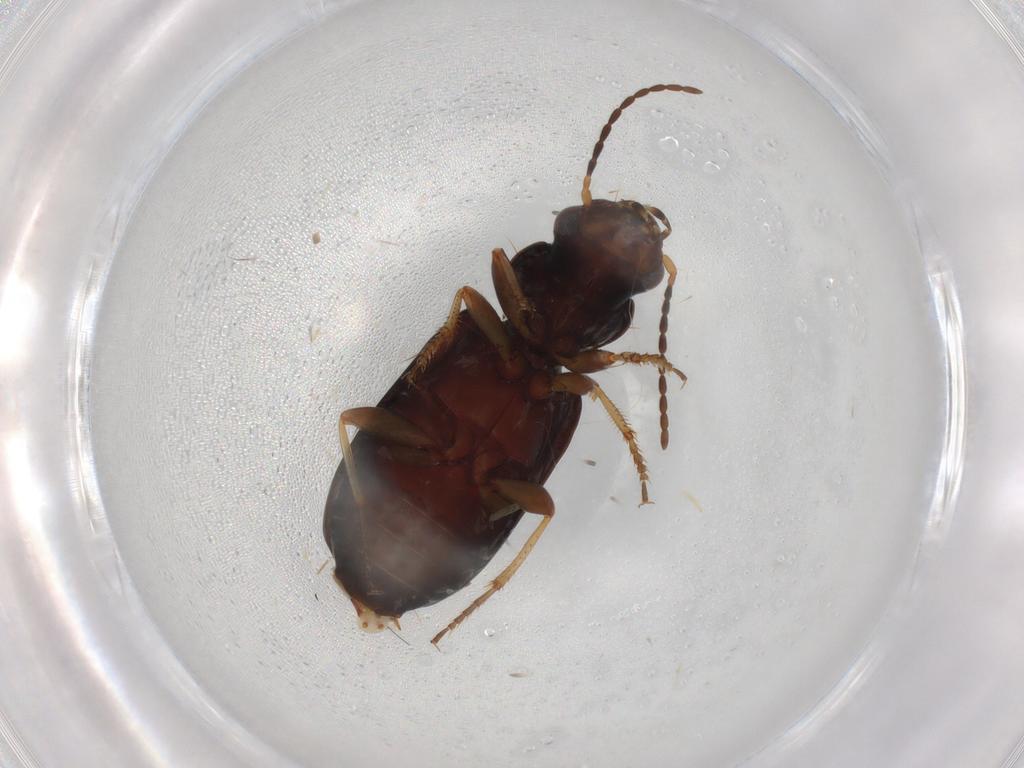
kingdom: Animalia
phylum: Arthropoda
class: Insecta
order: Coleoptera
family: Carabidae
